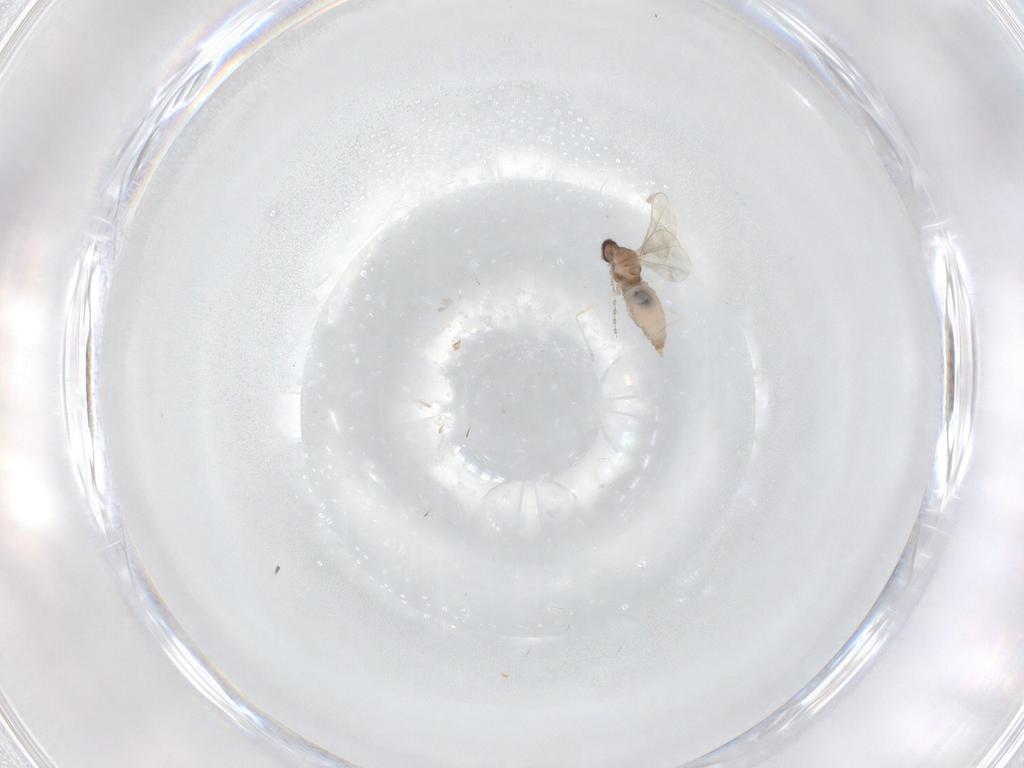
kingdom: Animalia
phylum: Arthropoda
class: Insecta
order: Diptera
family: Cecidomyiidae
